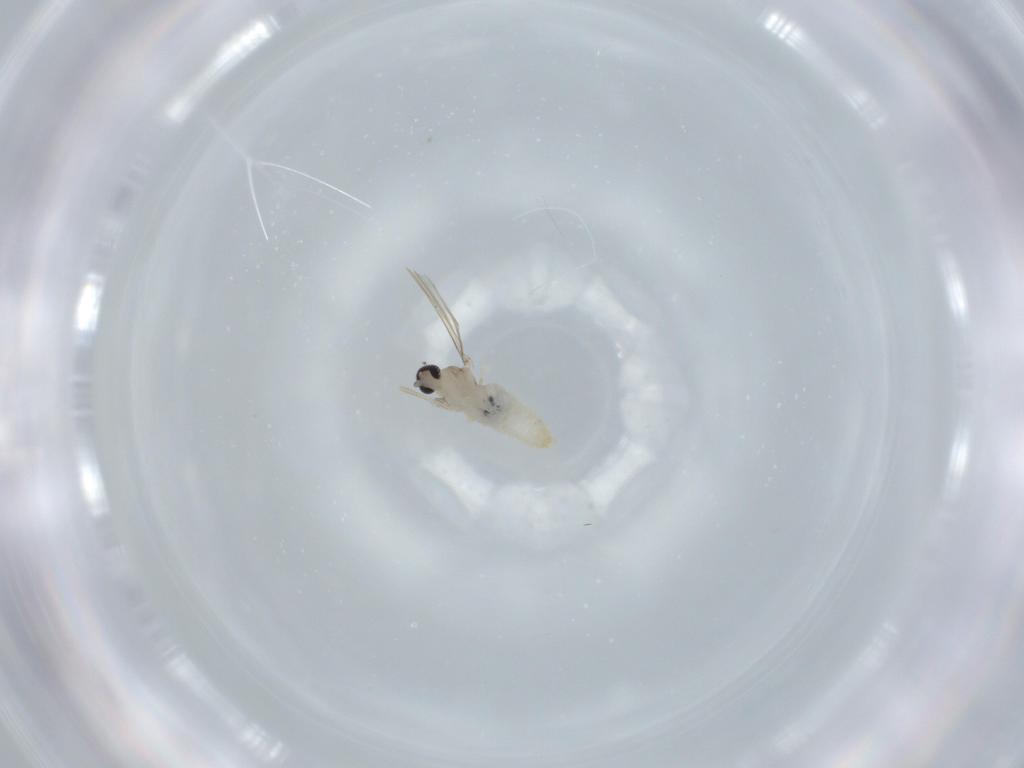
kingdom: Animalia
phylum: Arthropoda
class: Insecta
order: Diptera
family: Cecidomyiidae
